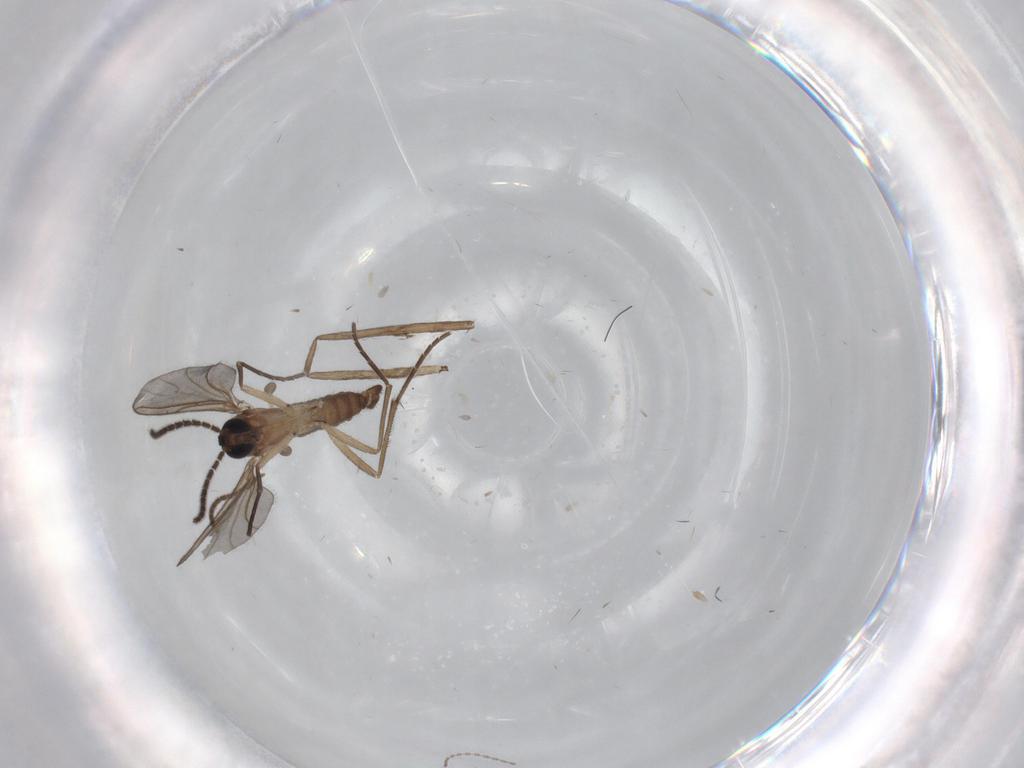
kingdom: Animalia
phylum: Arthropoda
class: Insecta
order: Diptera
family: Sciaridae
